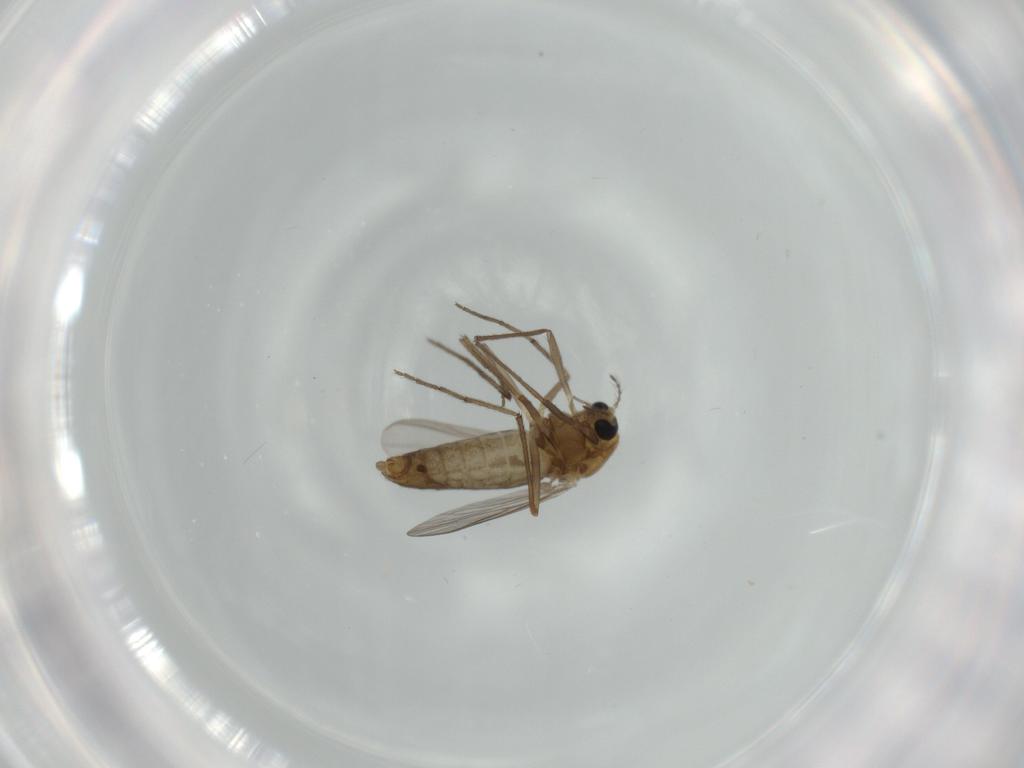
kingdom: Animalia
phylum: Arthropoda
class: Insecta
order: Diptera
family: Chironomidae
